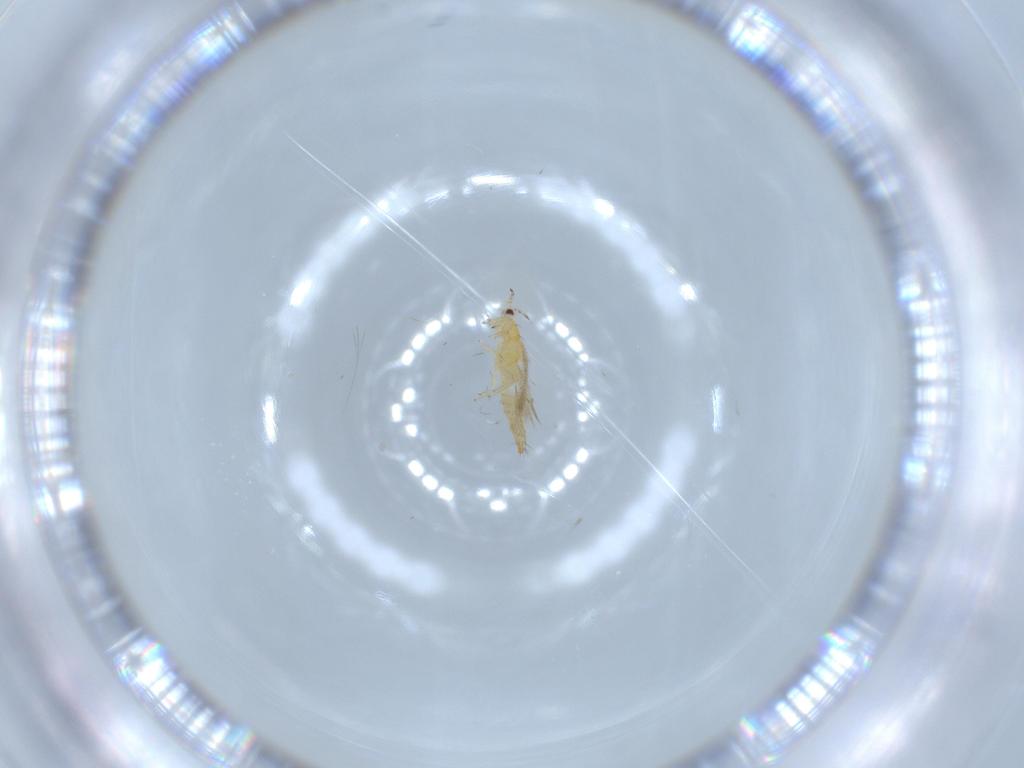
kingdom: Animalia
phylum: Arthropoda
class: Insecta
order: Thysanoptera
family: Thripidae
